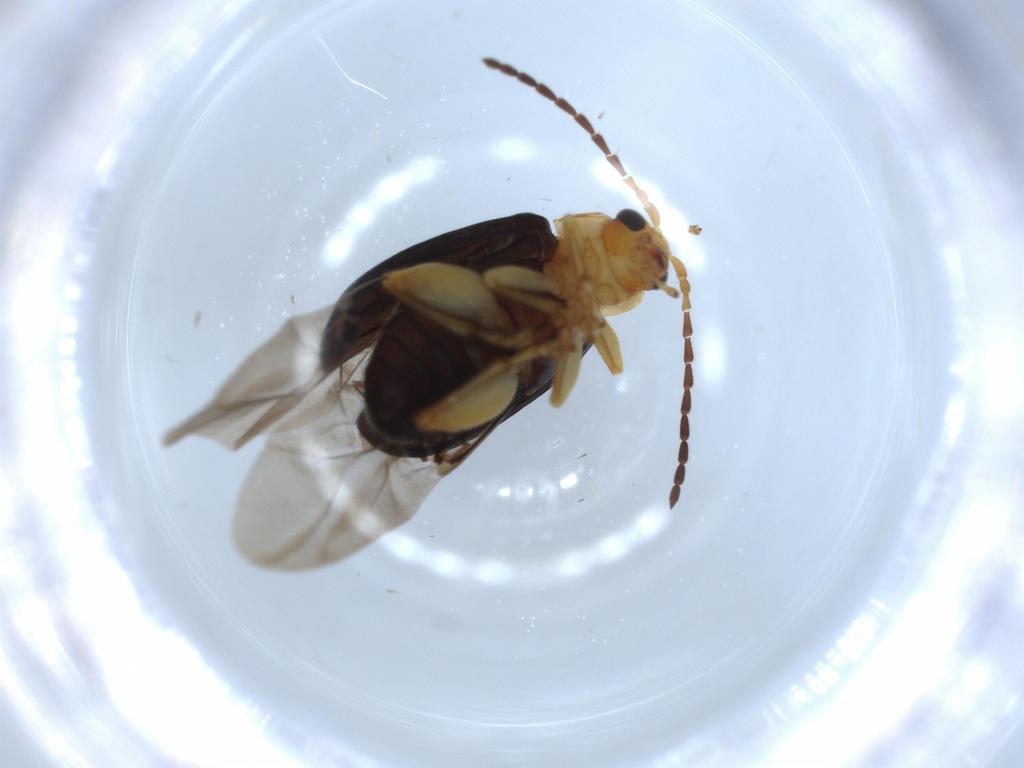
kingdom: Animalia
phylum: Arthropoda
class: Insecta
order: Coleoptera
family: Chrysomelidae
